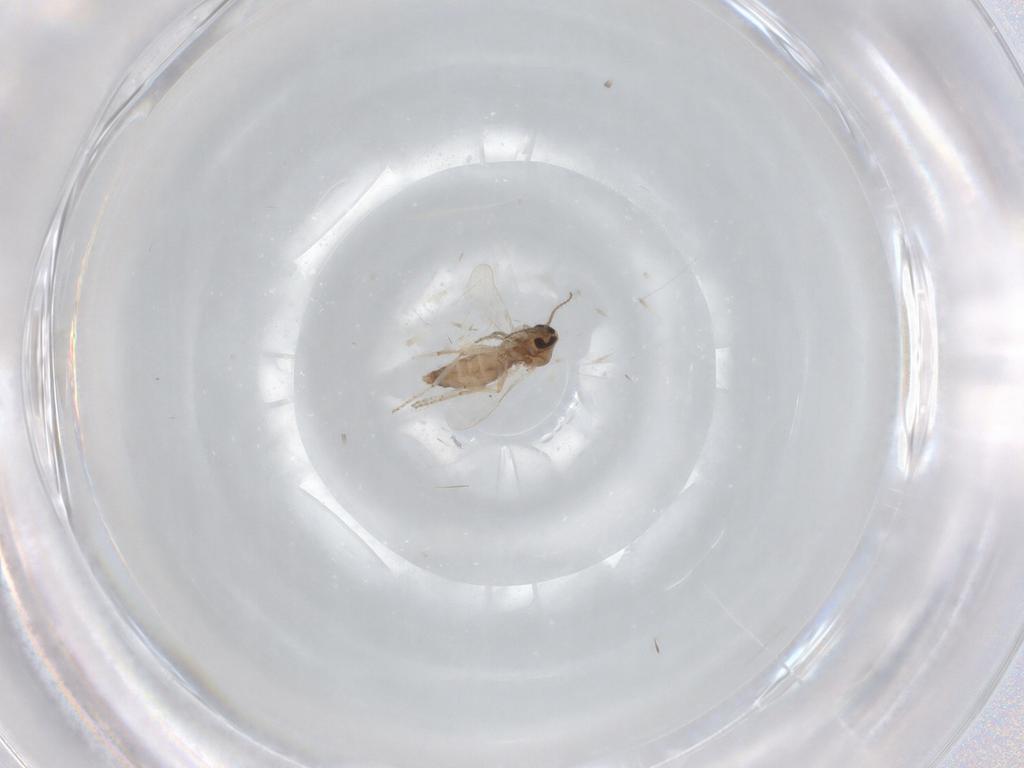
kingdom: Animalia
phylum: Arthropoda
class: Insecta
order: Diptera
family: Ceratopogonidae
